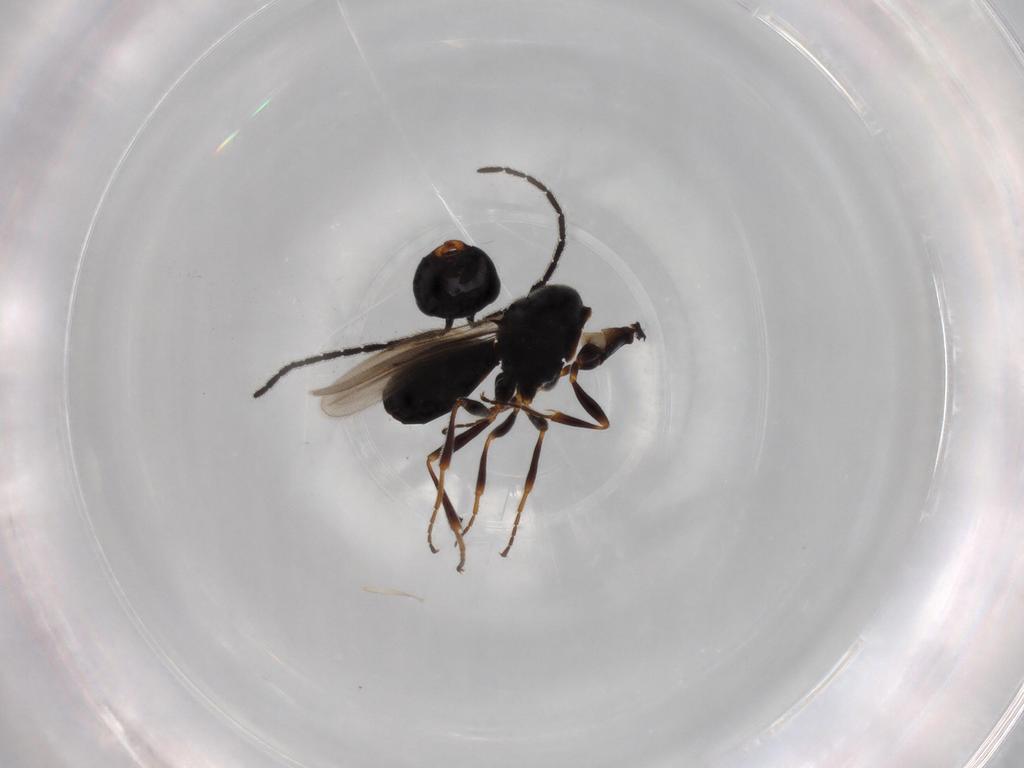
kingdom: Animalia
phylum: Arthropoda
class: Insecta
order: Hymenoptera
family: Scelionidae
